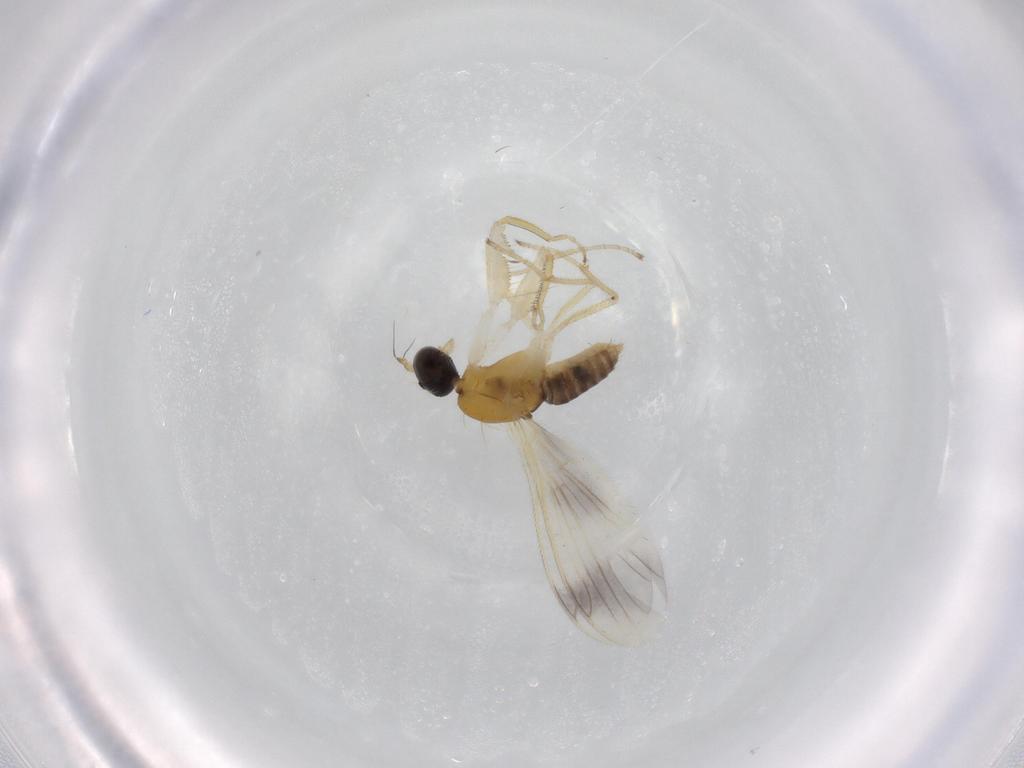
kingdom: Animalia
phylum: Arthropoda
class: Insecta
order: Diptera
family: Cecidomyiidae
